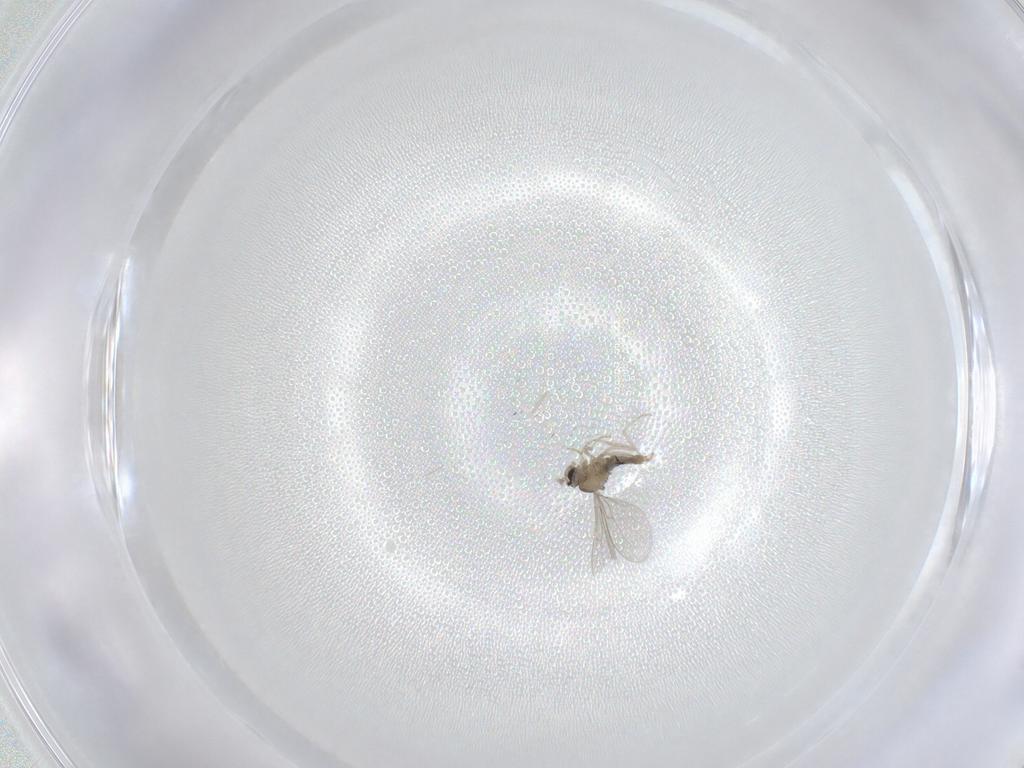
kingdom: Animalia
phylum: Arthropoda
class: Insecta
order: Diptera
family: Cecidomyiidae
